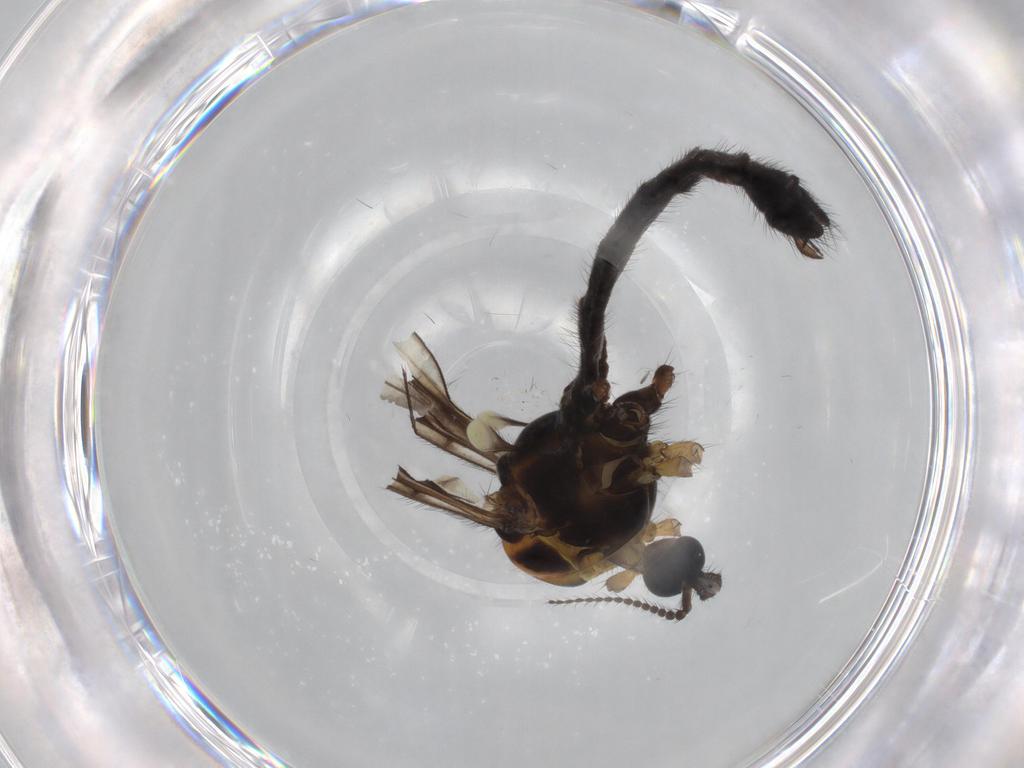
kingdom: Animalia
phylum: Arthropoda
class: Insecta
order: Diptera
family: Limoniidae
